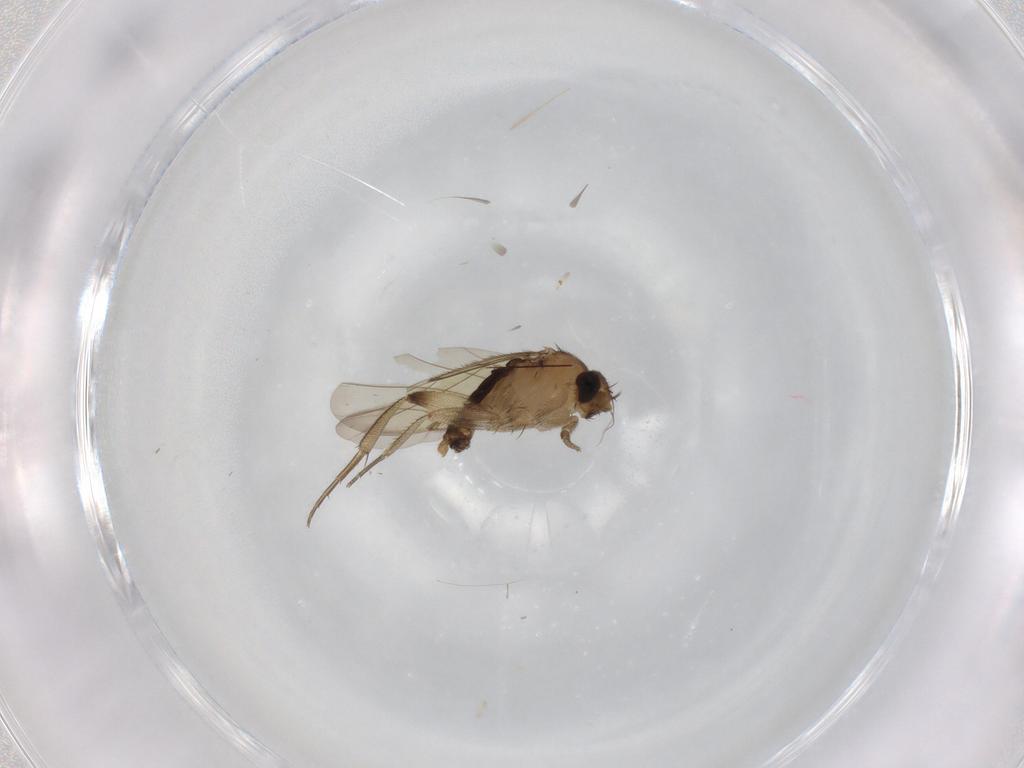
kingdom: Animalia
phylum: Arthropoda
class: Insecta
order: Diptera
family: Phoridae
